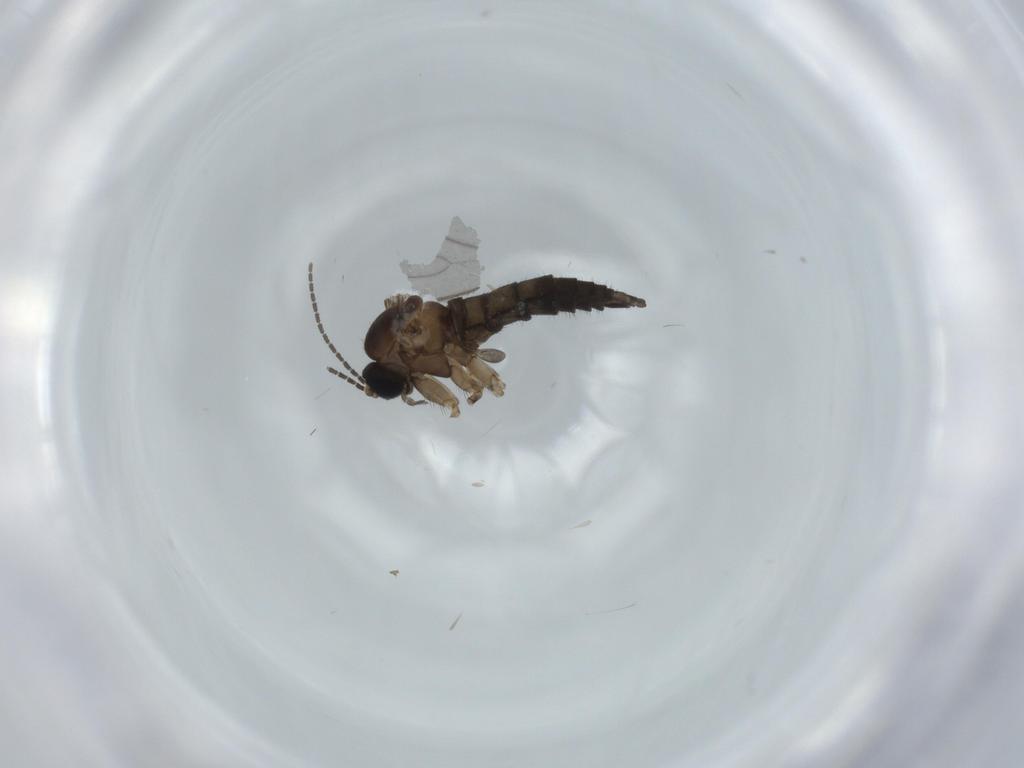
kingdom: Animalia
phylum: Arthropoda
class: Insecta
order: Diptera
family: Sciaridae
